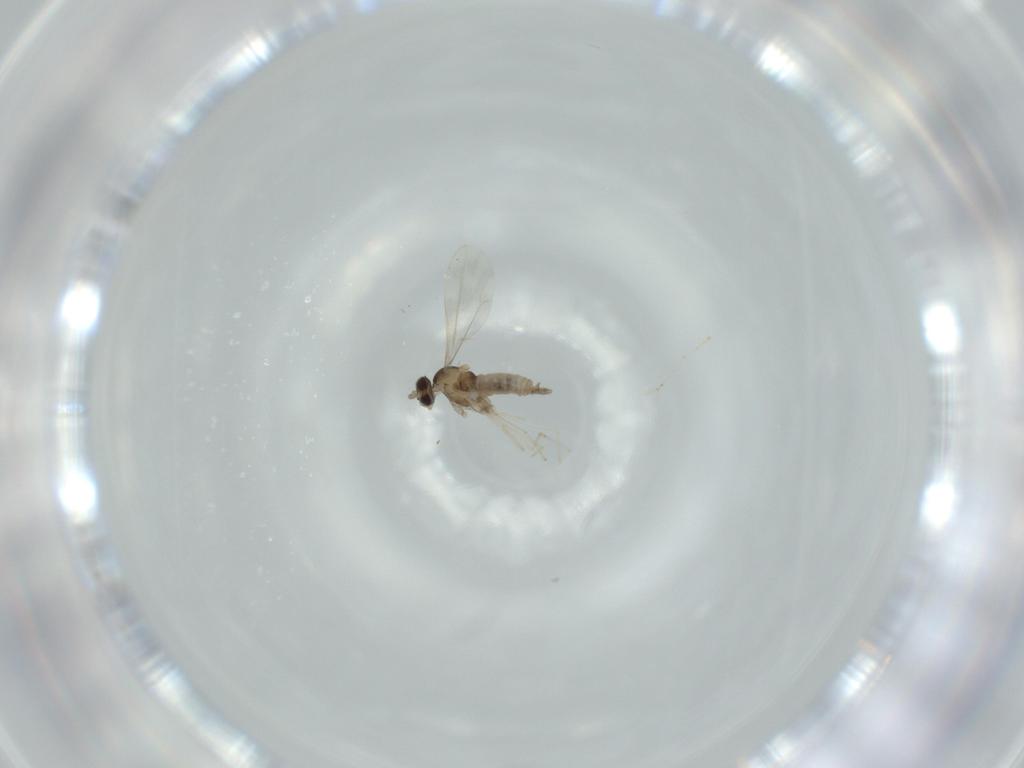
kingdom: Animalia
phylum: Arthropoda
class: Insecta
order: Diptera
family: Cecidomyiidae
